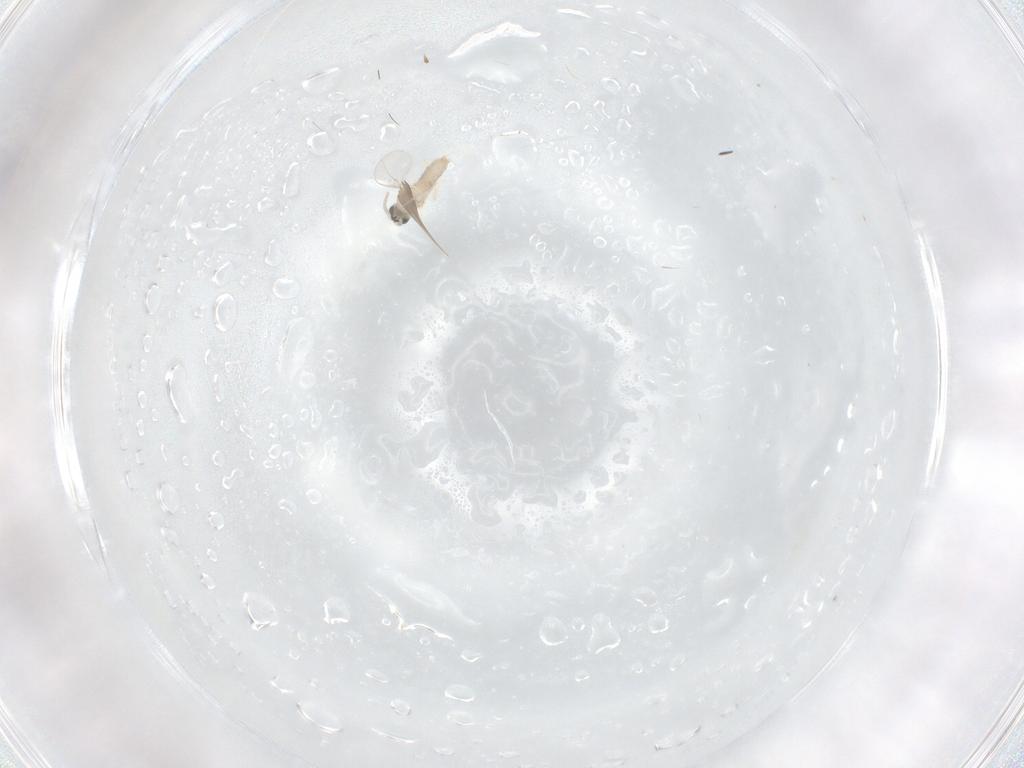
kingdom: Animalia
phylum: Arthropoda
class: Insecta
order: Diptera
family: Cecidomyiidae
